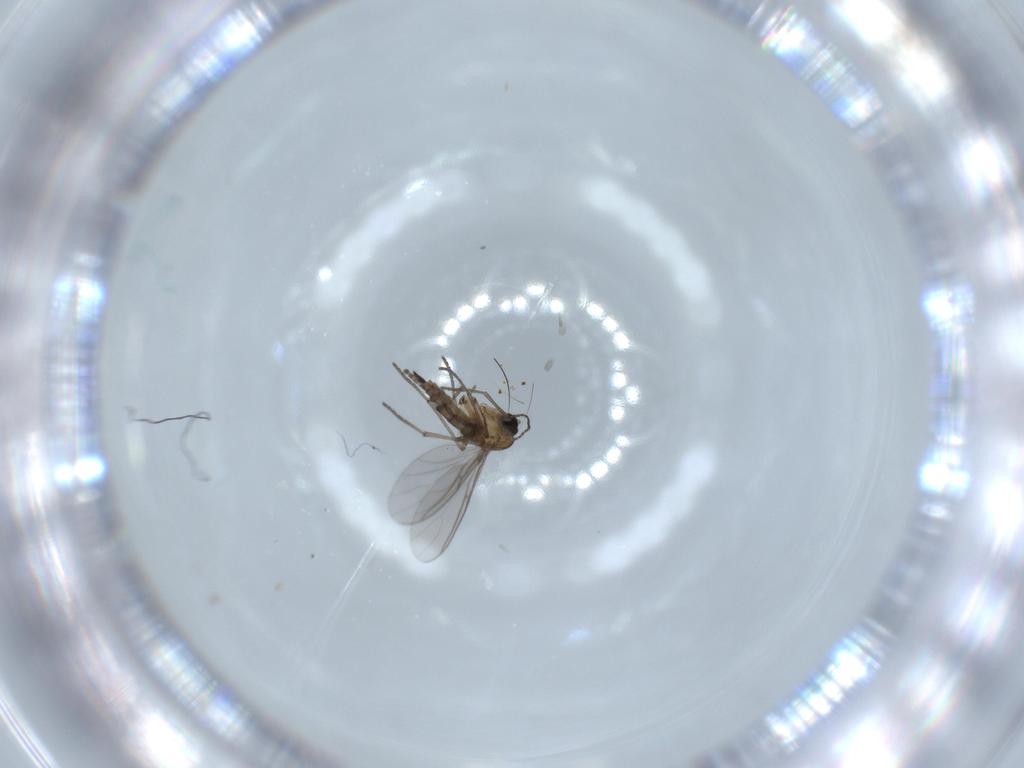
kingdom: Animalia
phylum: Arthropoda
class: Insecta
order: Diptera
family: Sciaridae
